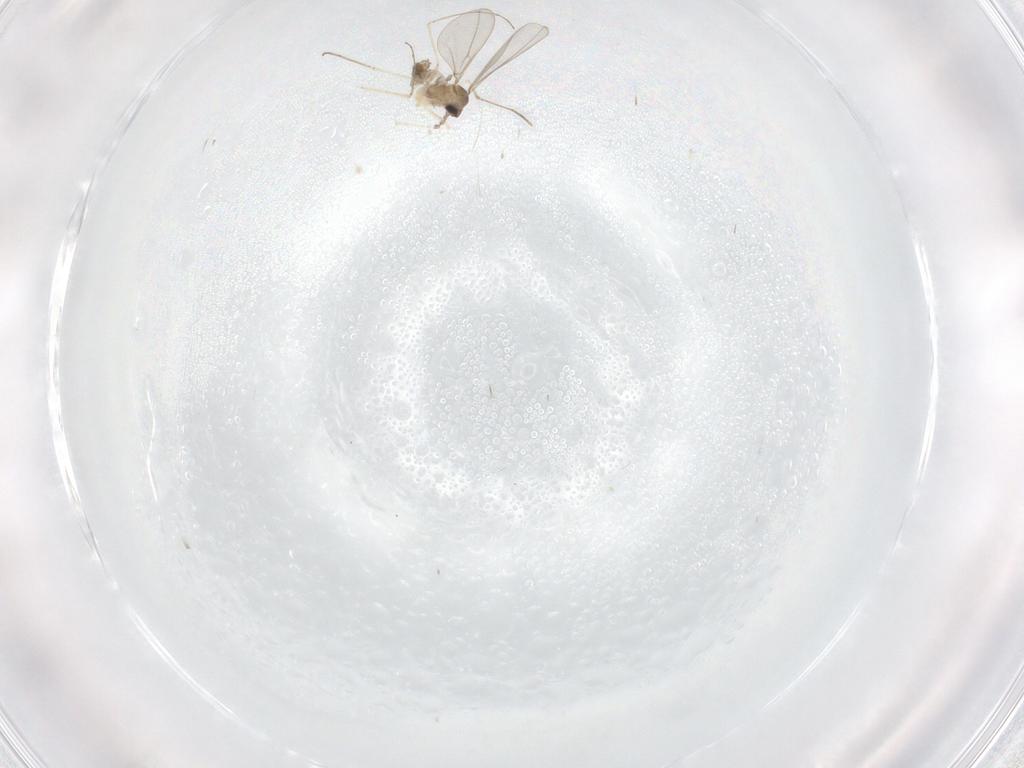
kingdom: Animalia
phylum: Arthropoda
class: Insecta
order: Diptera
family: Cecidomyiidae
